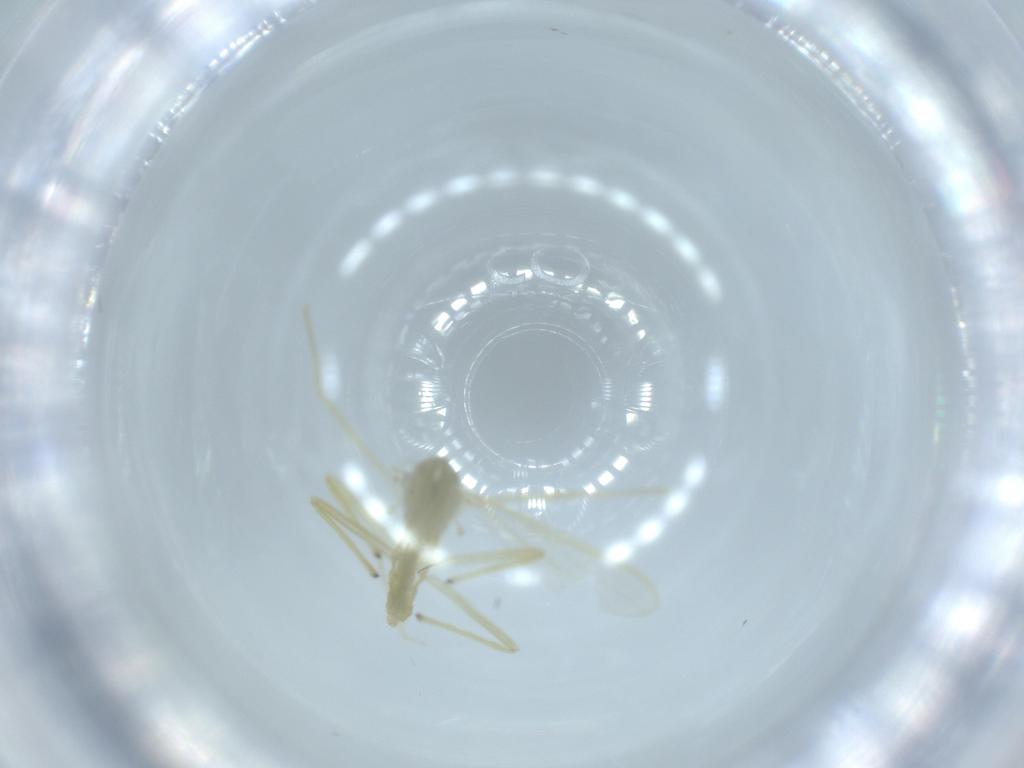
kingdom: Animalia
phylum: Arthropoda
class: Insecta
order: Diptera
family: Chironomidae
